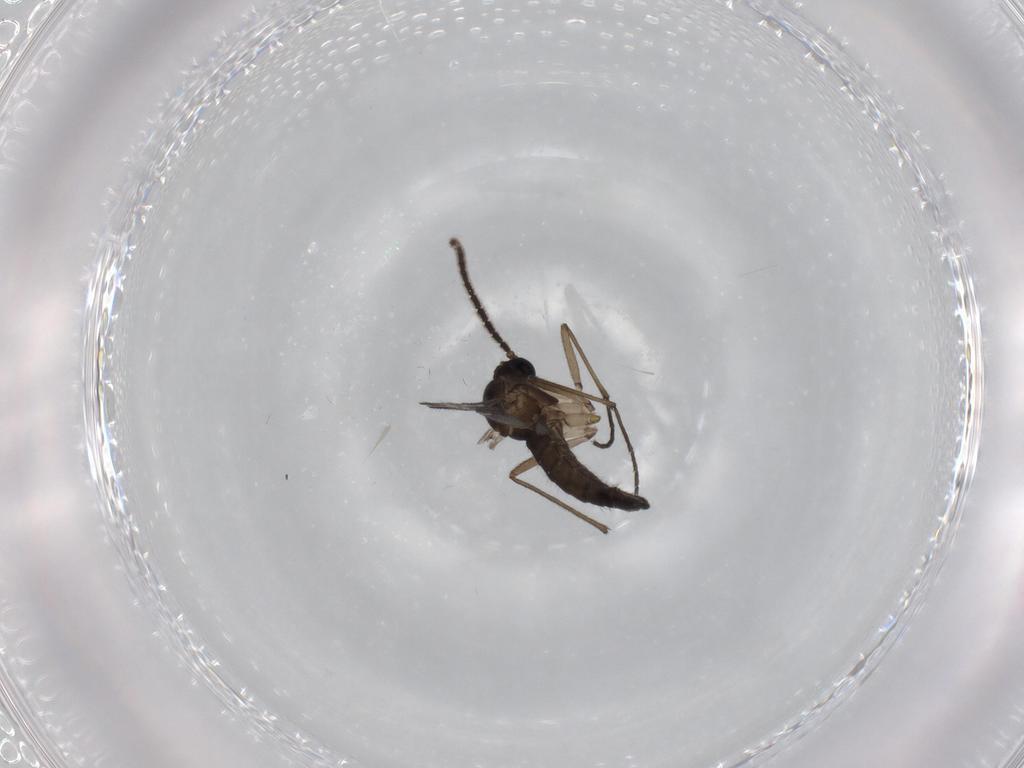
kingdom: Animalia
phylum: Arthropoda
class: Insecta
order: Diptera
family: Sciaridae
